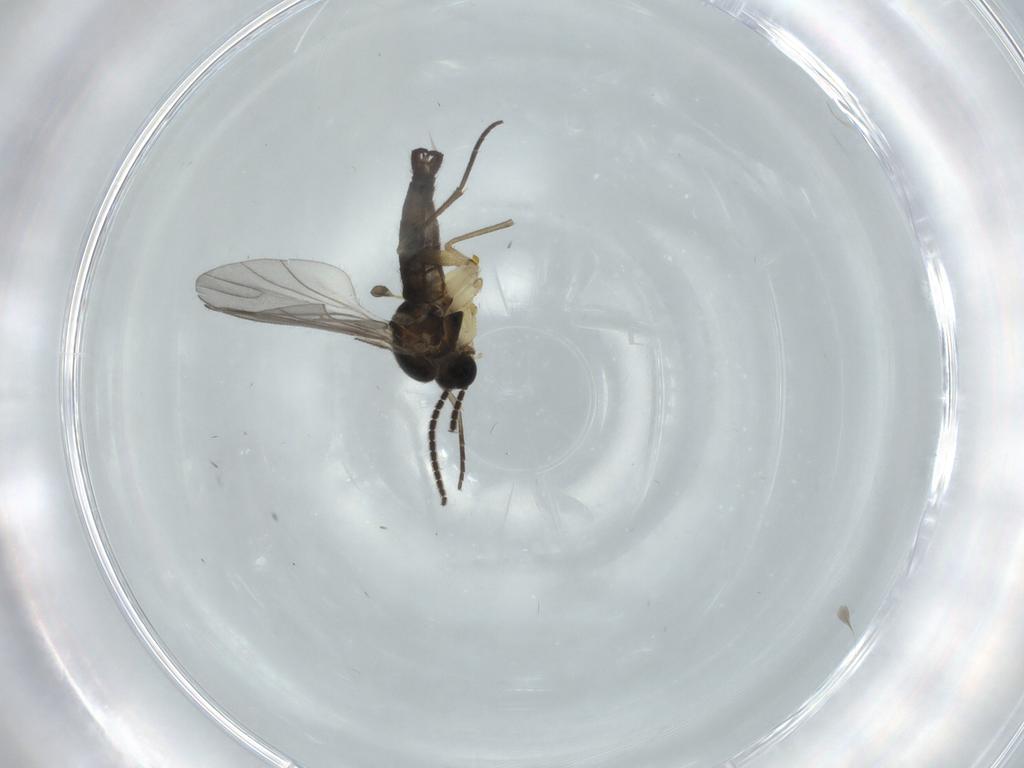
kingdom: Animalia
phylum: Arthropoda
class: Insecta
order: Diptera
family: Sciaridae
